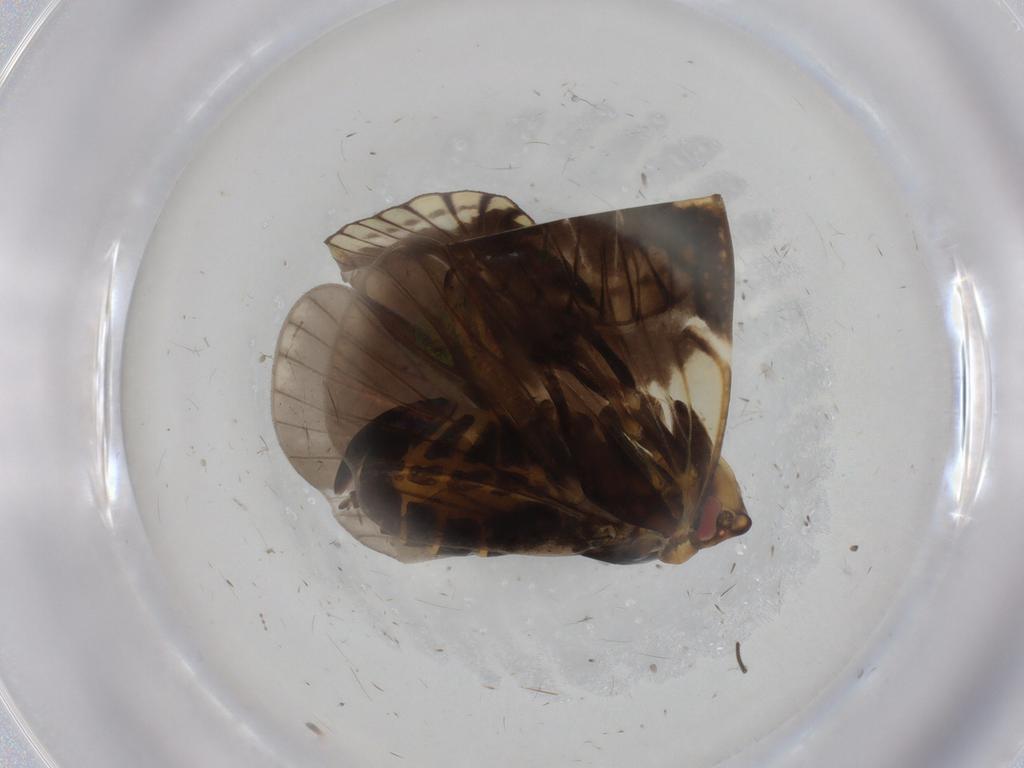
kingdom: Animalia
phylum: Arthropoda
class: Insecta
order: Hemiptera
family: Cixiidae
